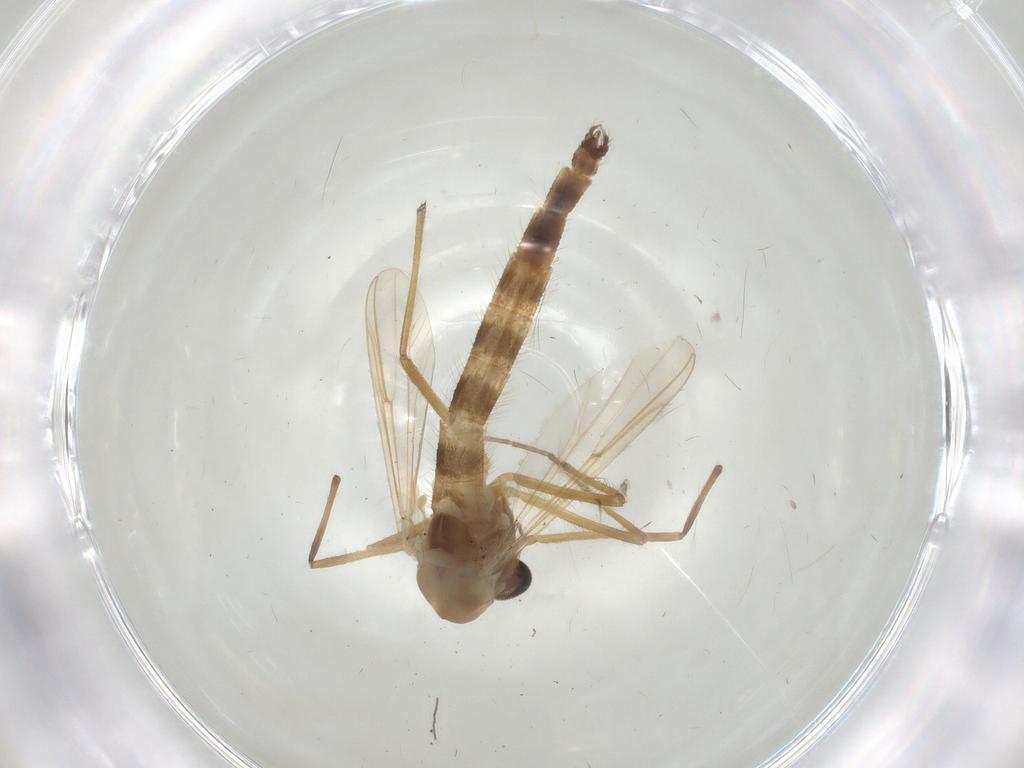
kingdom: Animalia
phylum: Arthropoda
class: Insecta
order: Diptera
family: Chironomidae
